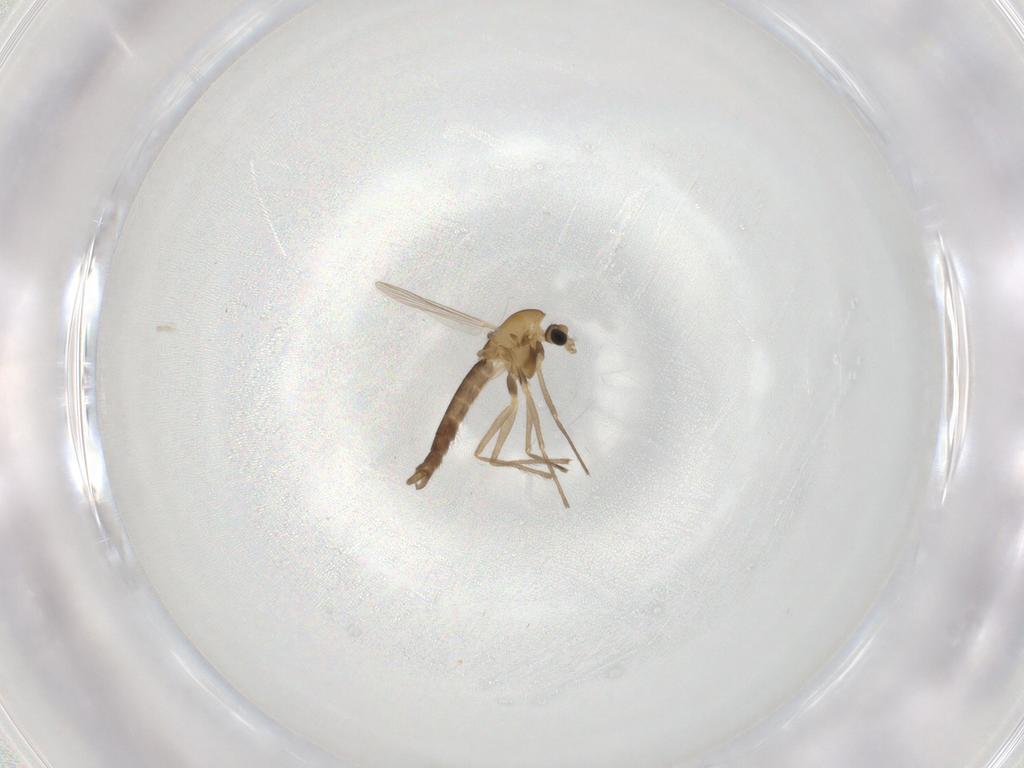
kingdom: Animalia
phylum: Arthropoda
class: Insecta
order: Diptera
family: Chironomidae
